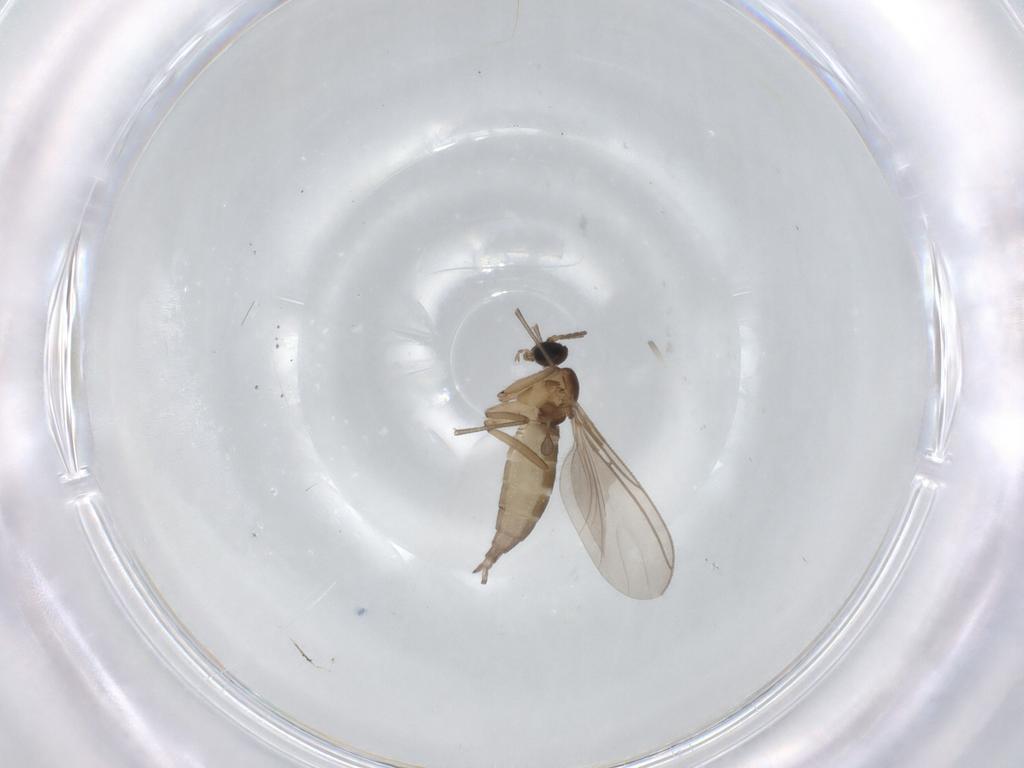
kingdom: Animalia
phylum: Arthropoda
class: Insecta
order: Diptera
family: Sciaridae
